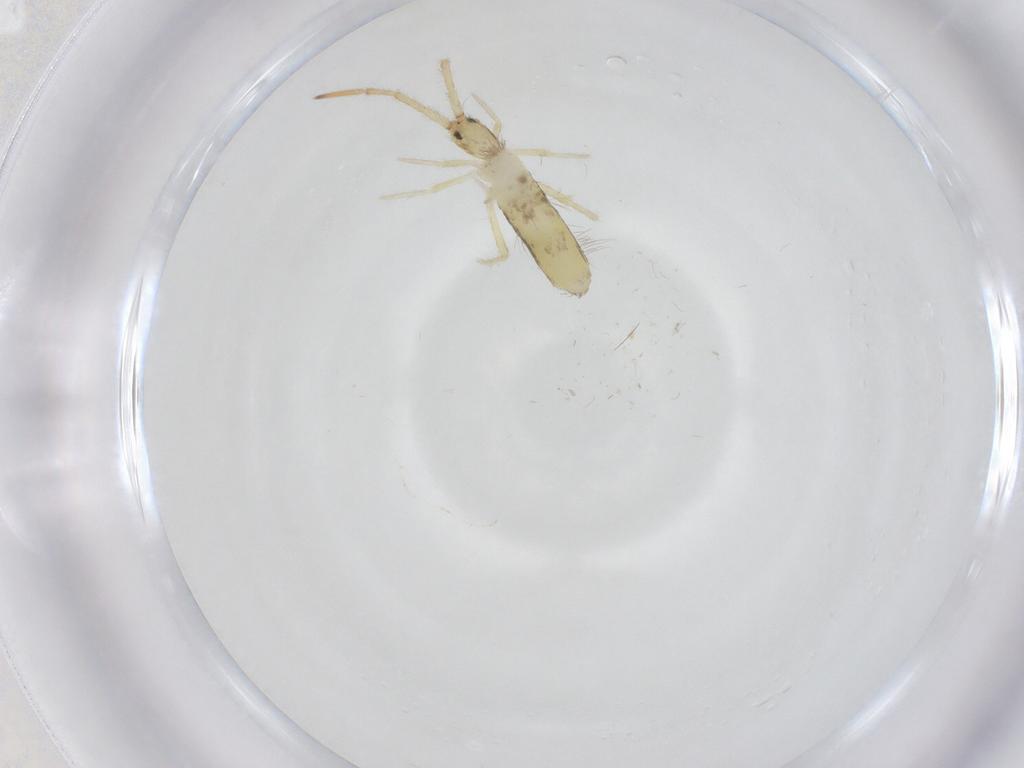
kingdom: Animalia
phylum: Arthropoda
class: Collembola
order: Entomobryomorpha
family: Entomobryidae
